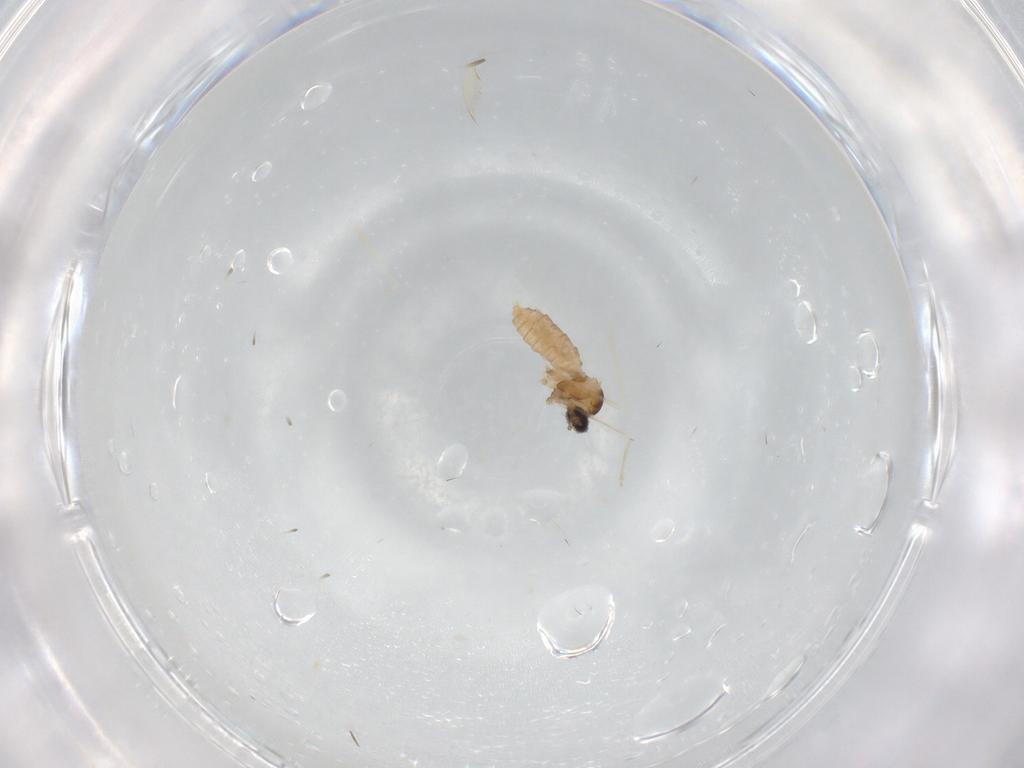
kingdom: Animalia
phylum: Arthropoda
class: Insecta
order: Diptera
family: Cecidomyiidae
